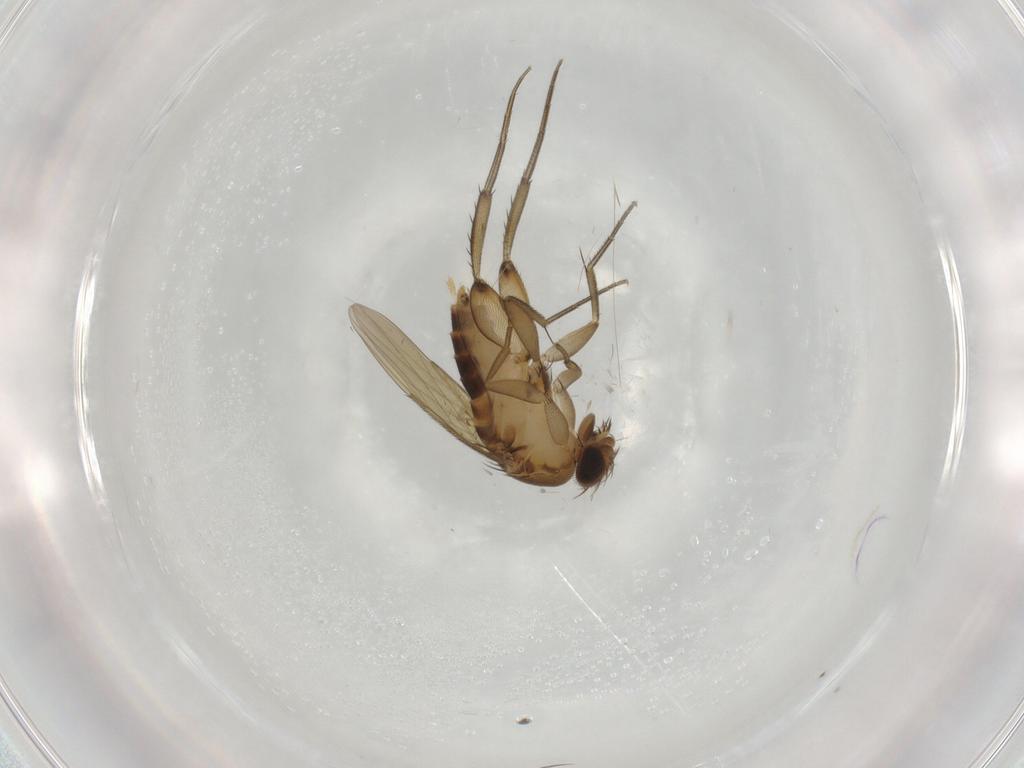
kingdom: Animalia
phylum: Arthropoda
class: Insecta
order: Diptera
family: Phoridae
